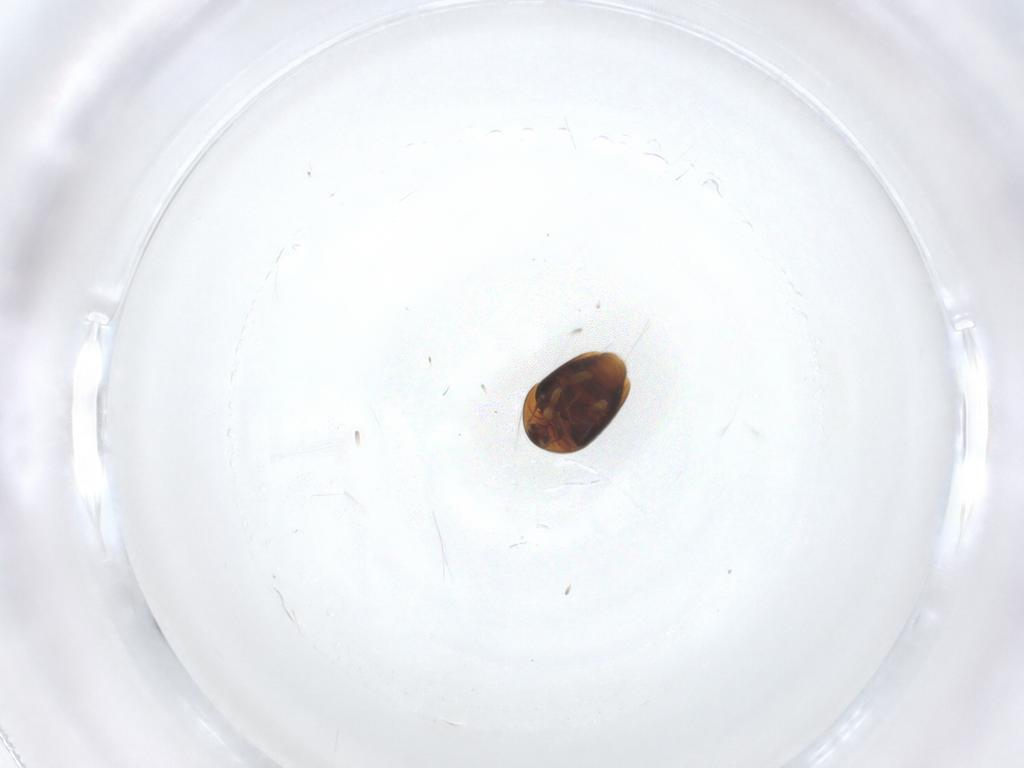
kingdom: Animalia
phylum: Arthropoda
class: Insecta
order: Coleoptera
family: Corylophidae
